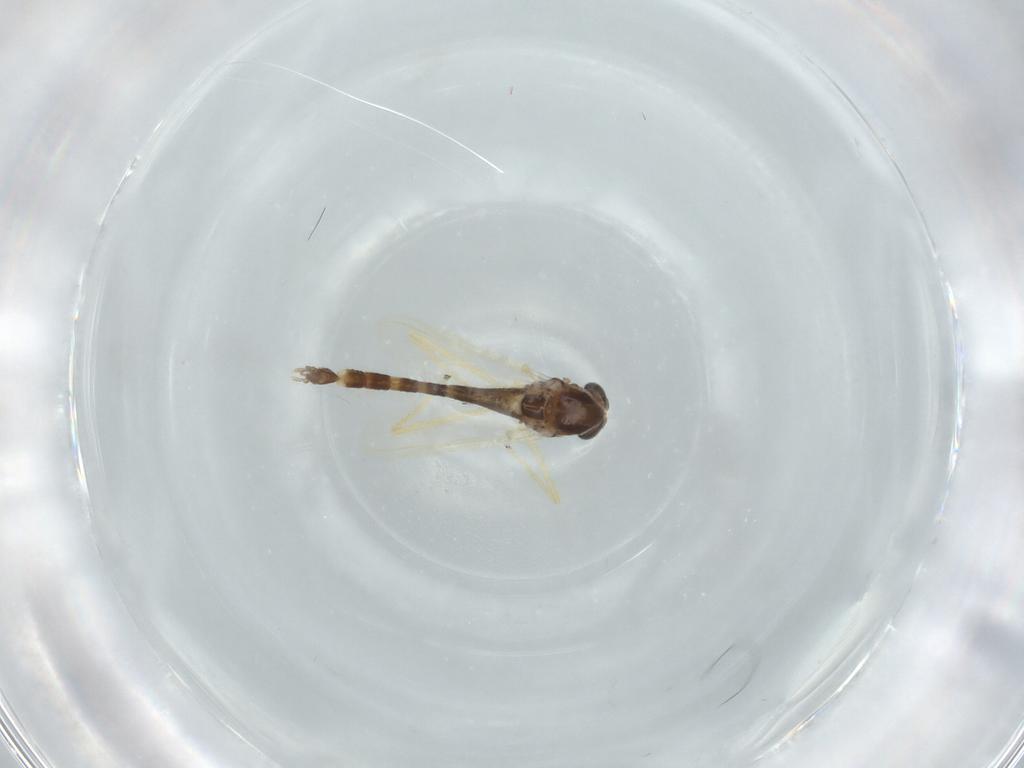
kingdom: Animalia
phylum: Arthropoda
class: Insecta
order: Diptera
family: Chironomidae
